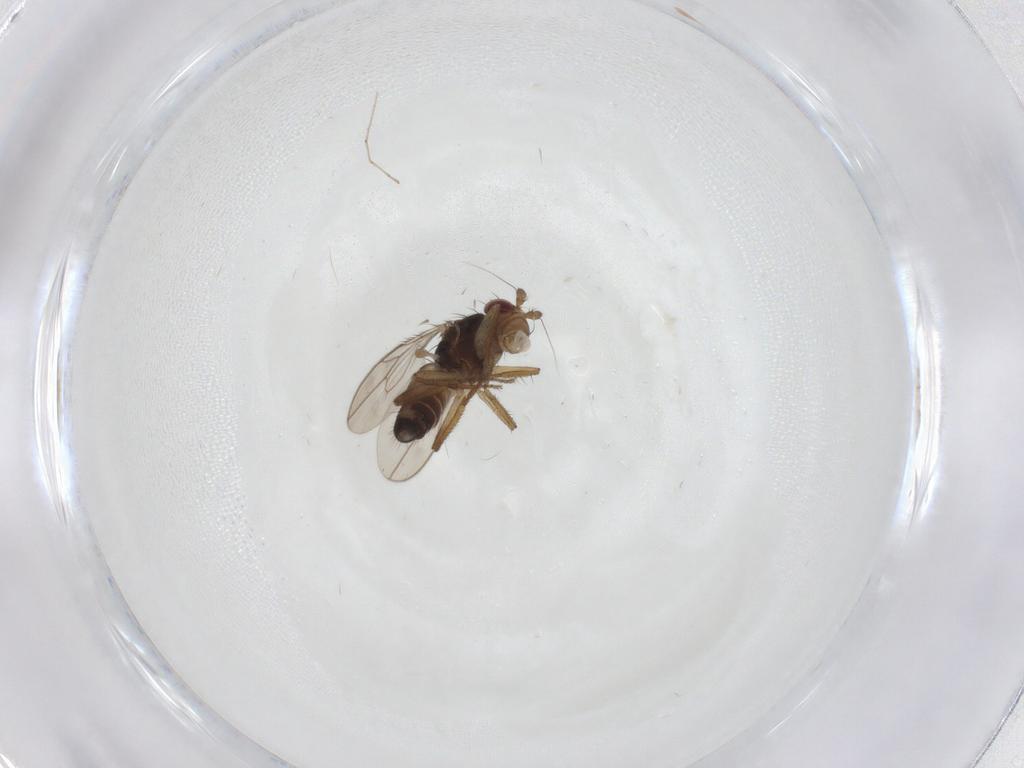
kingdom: Animalia
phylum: Arthropoda
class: Insecta
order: Diptera
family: Sphaeroceridae
